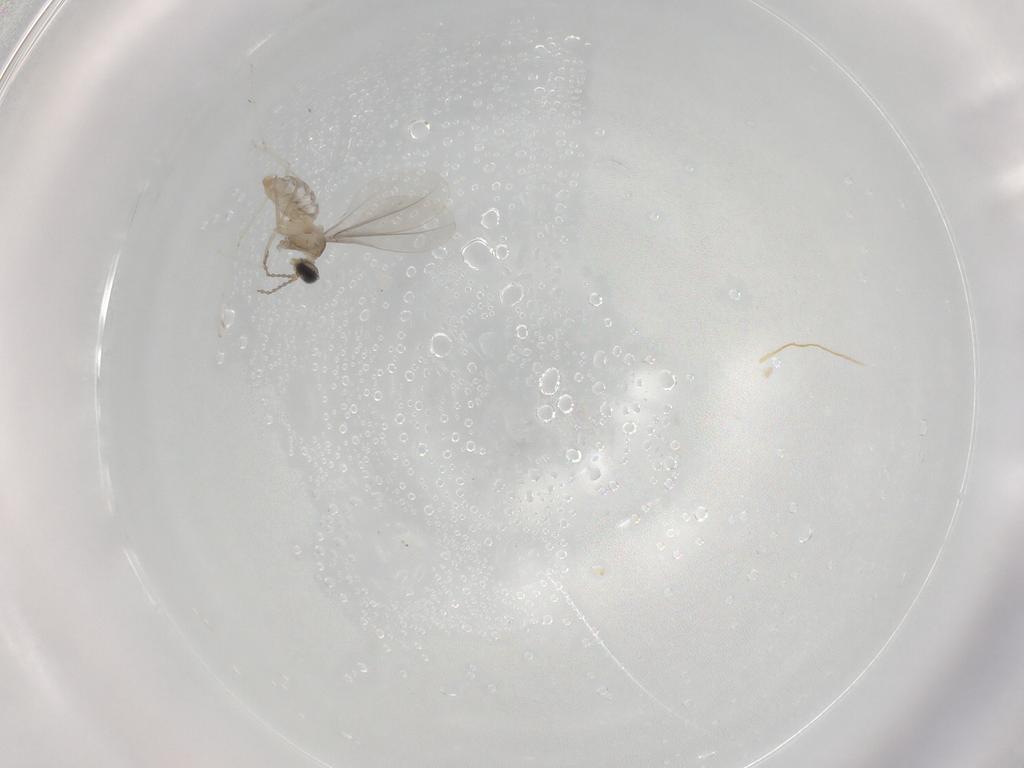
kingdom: Animalia
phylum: Arthropoda
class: Insecta
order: Diptera
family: Cecidomyiidae
